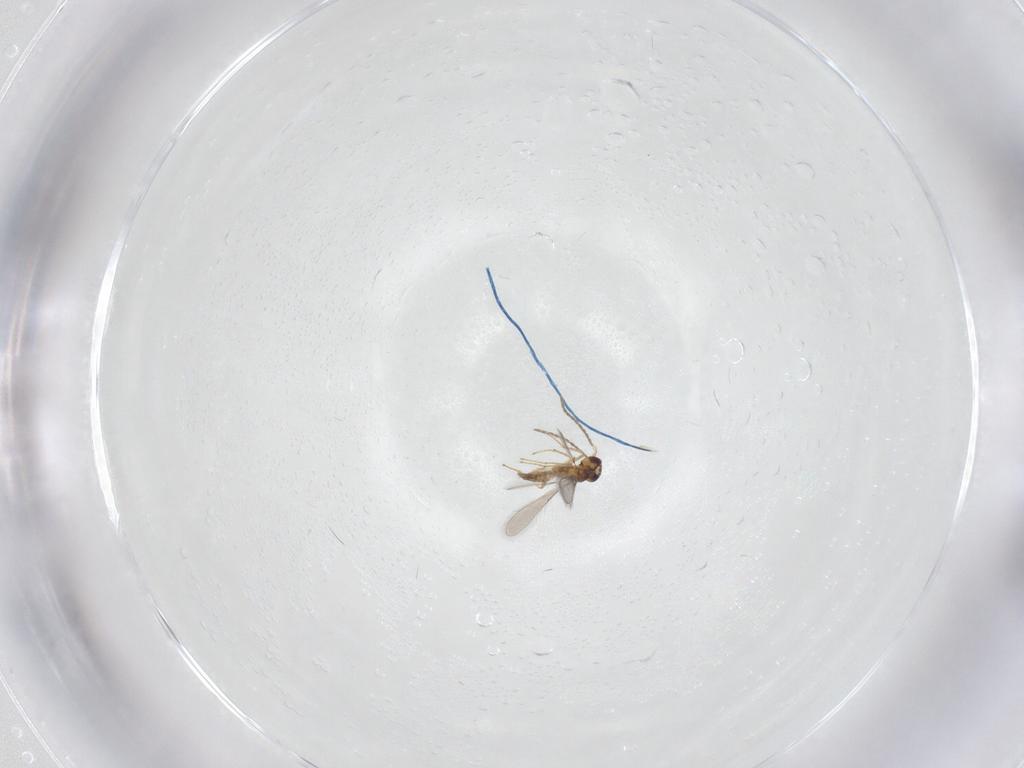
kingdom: Animalia
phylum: Arthropoda
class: Insecta
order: Hymenoptera
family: Mymaridae
